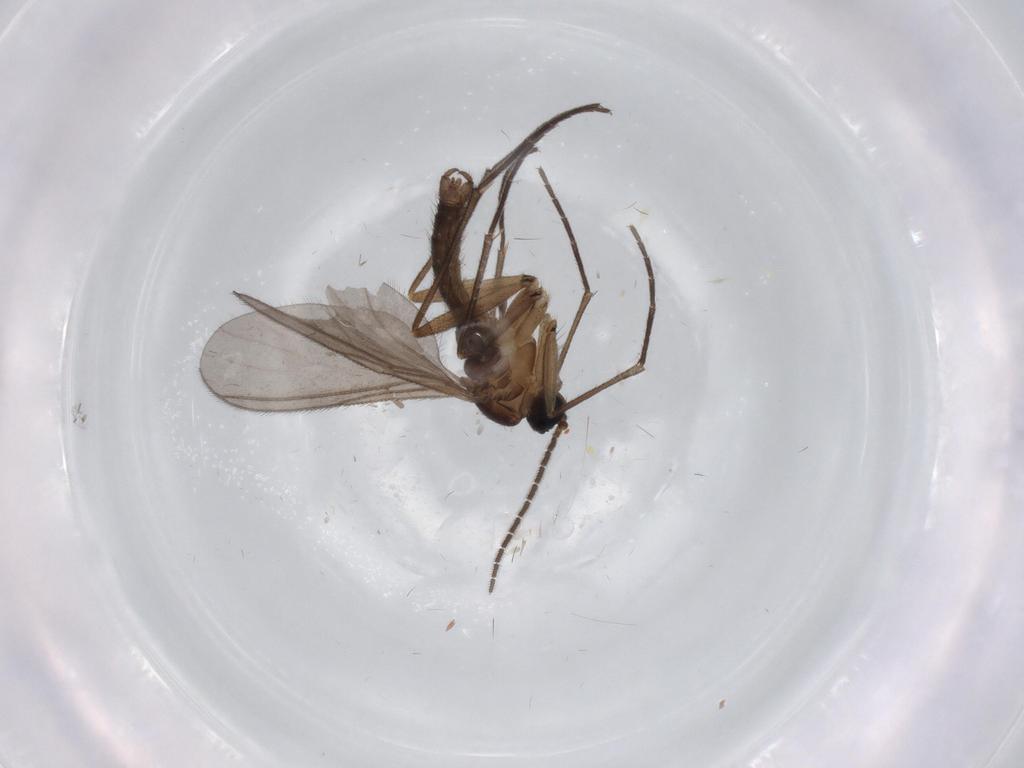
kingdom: Animalia
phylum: Arthropoda
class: Insecta
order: Diptera
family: Sciaridae
